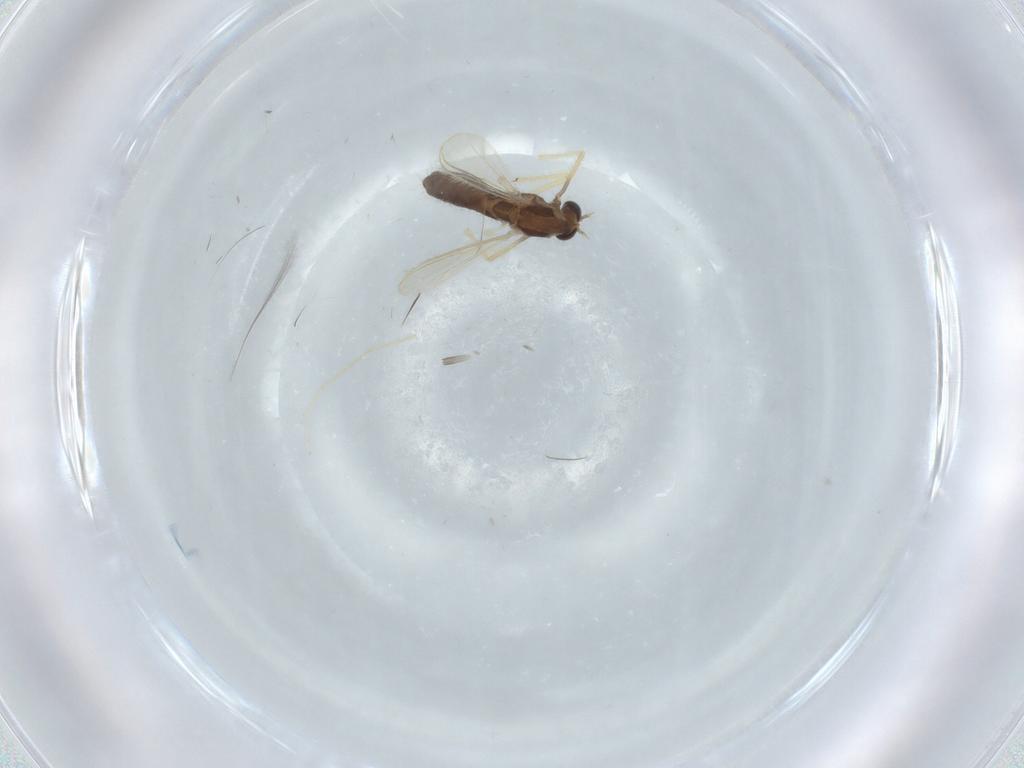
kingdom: Animalia
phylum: Arthropoda
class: Insecta
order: Diptera
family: Chironomidae
